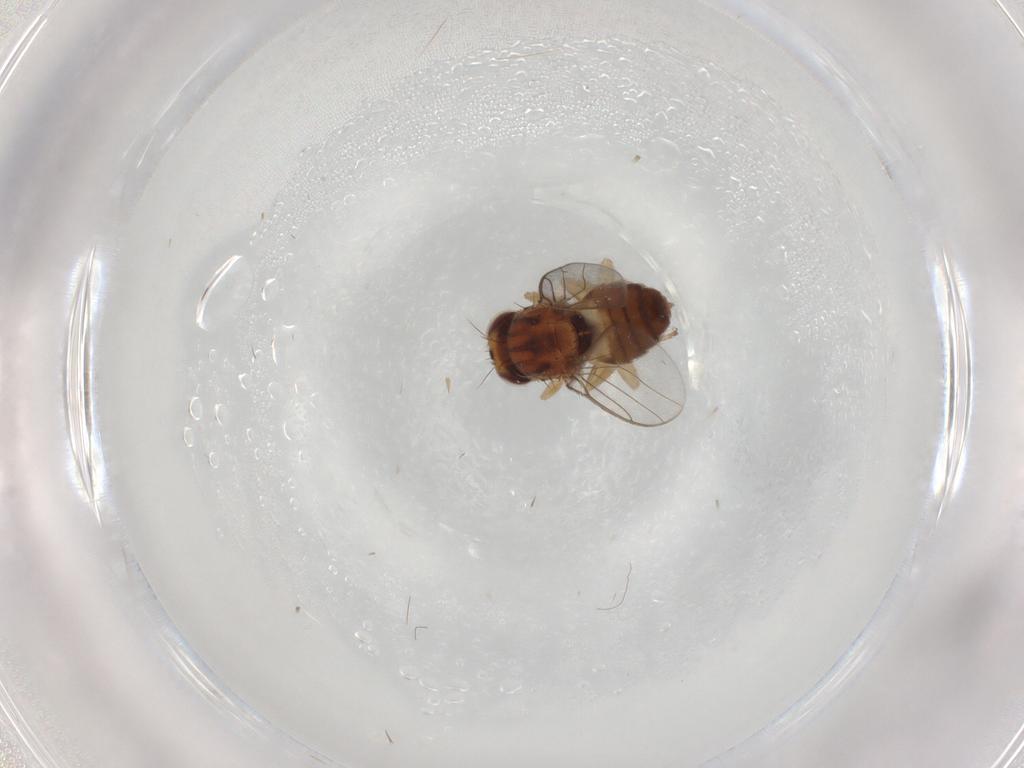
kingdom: Animalia
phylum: Arthropoda
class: Insecta
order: Diptera
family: Chloropidae
